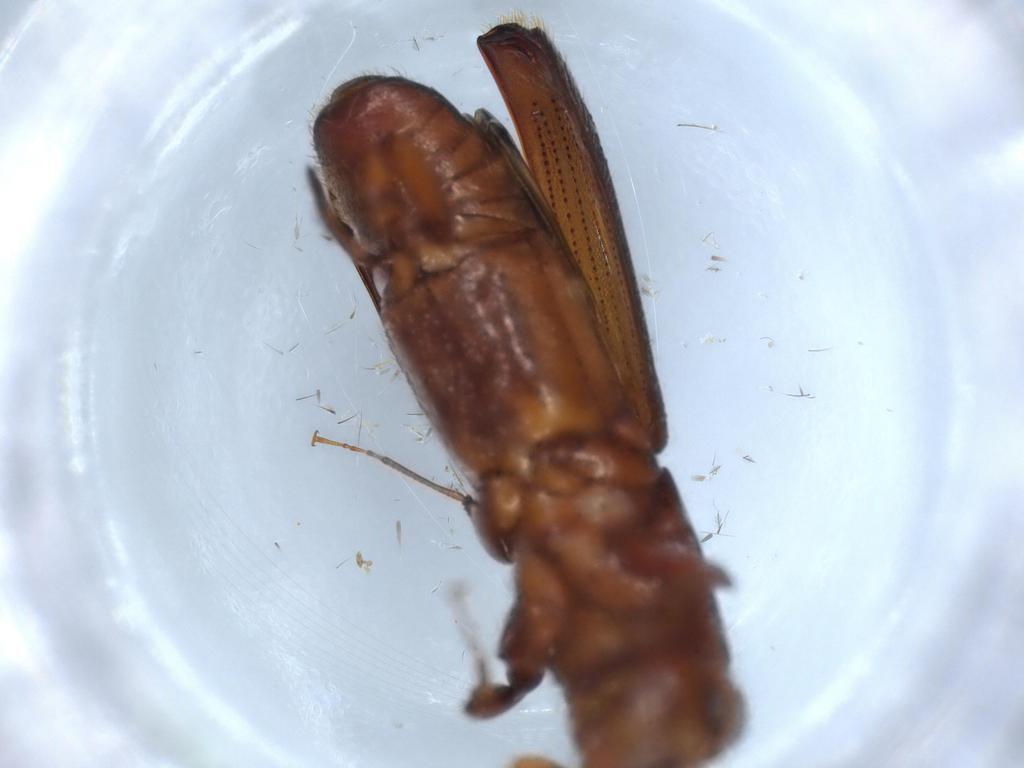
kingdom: Animalia
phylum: Arthropoda
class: Insecta
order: Coleoptera
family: Curculionidae
